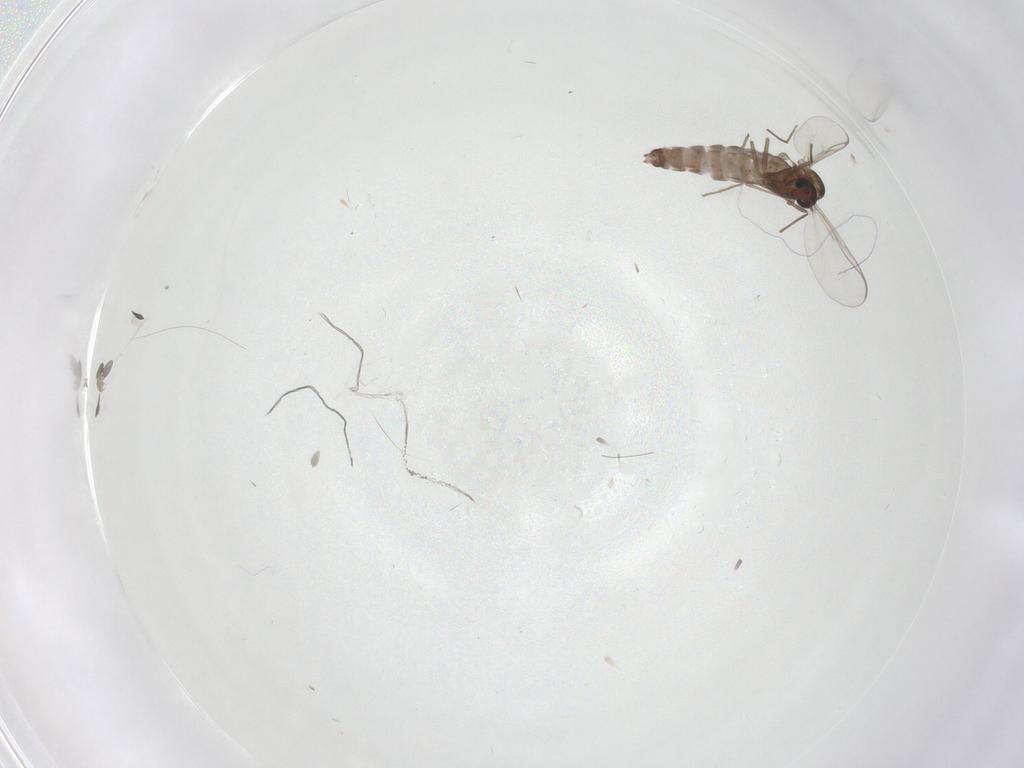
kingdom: Animalia
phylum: Arthropoda
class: Insecta
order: Diptera
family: Chironomidae
